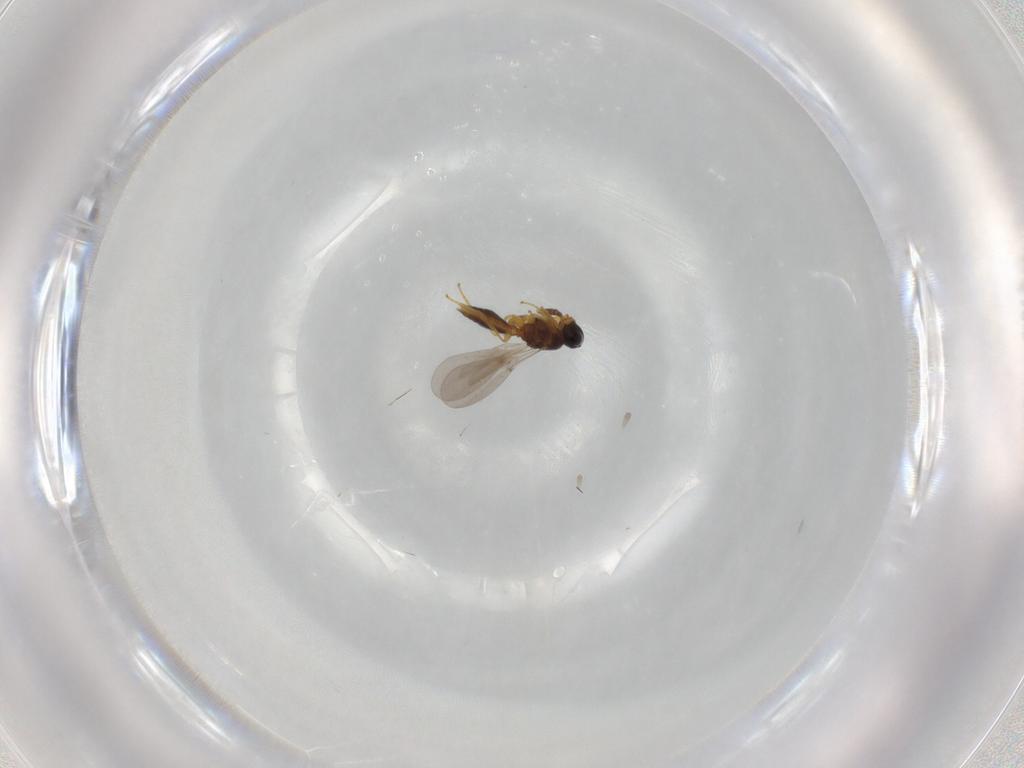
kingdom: Animalia
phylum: Arthropoda
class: Insecta
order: Hymenoptera
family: Platygastridae
